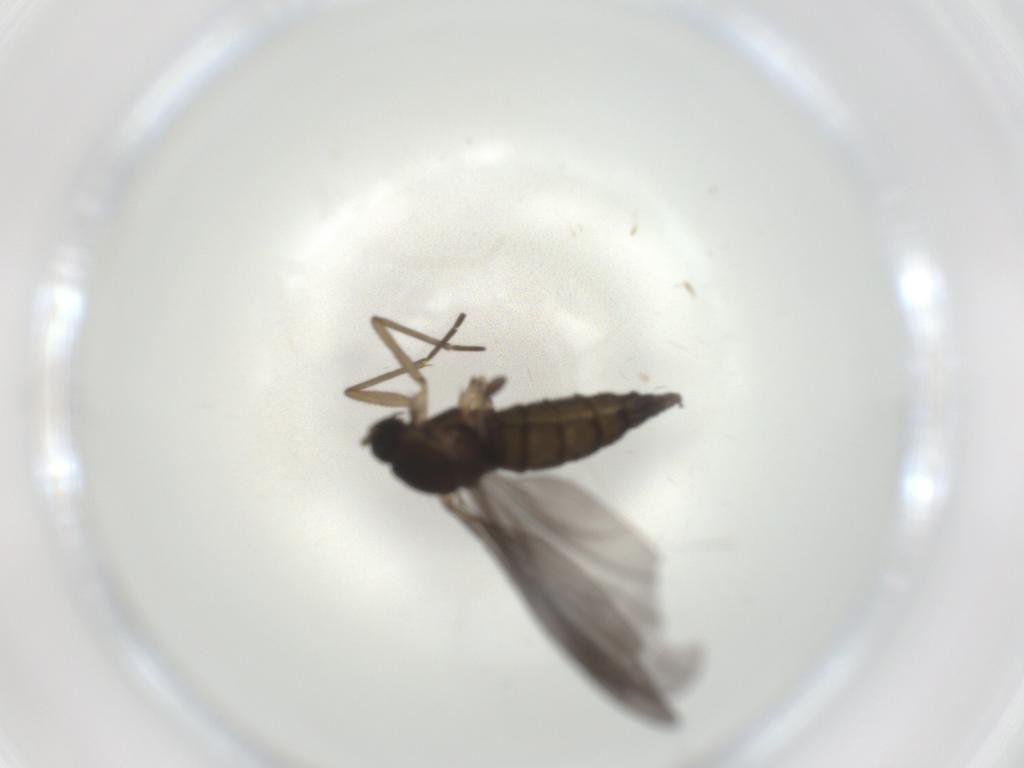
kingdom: Animalia
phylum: Arthropoda
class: Insecta
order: Diptera
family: Sciaridae
